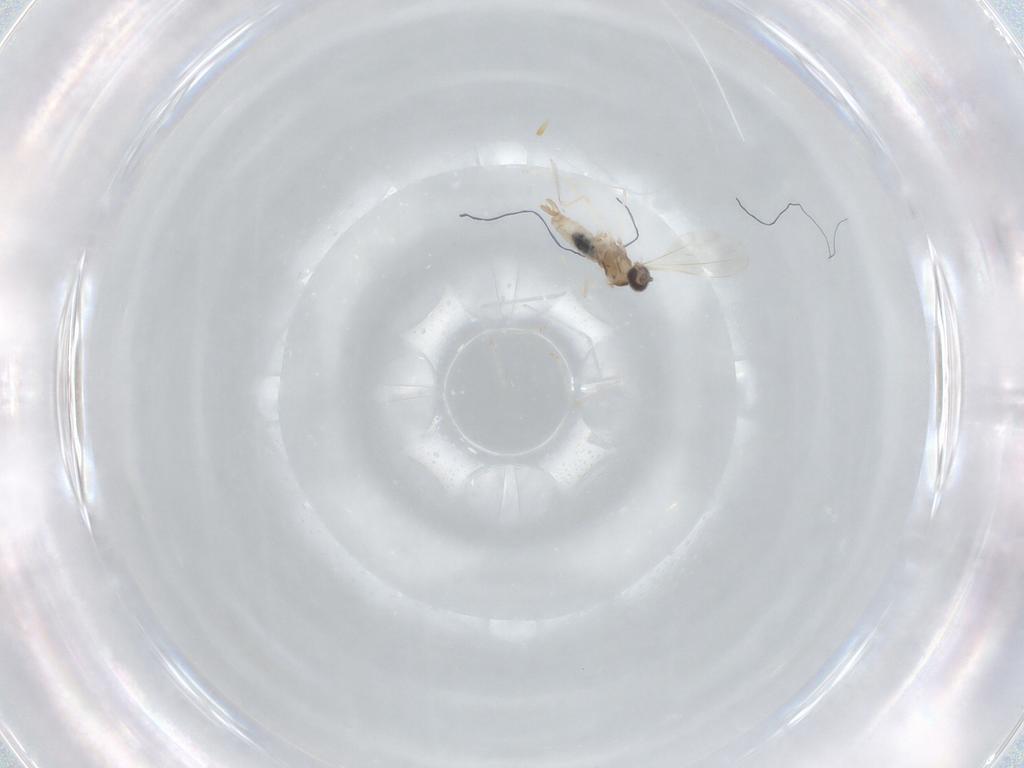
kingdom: Animalia
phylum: Arthropoda
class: Insecta
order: Diptera
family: Cecidomyiidae
